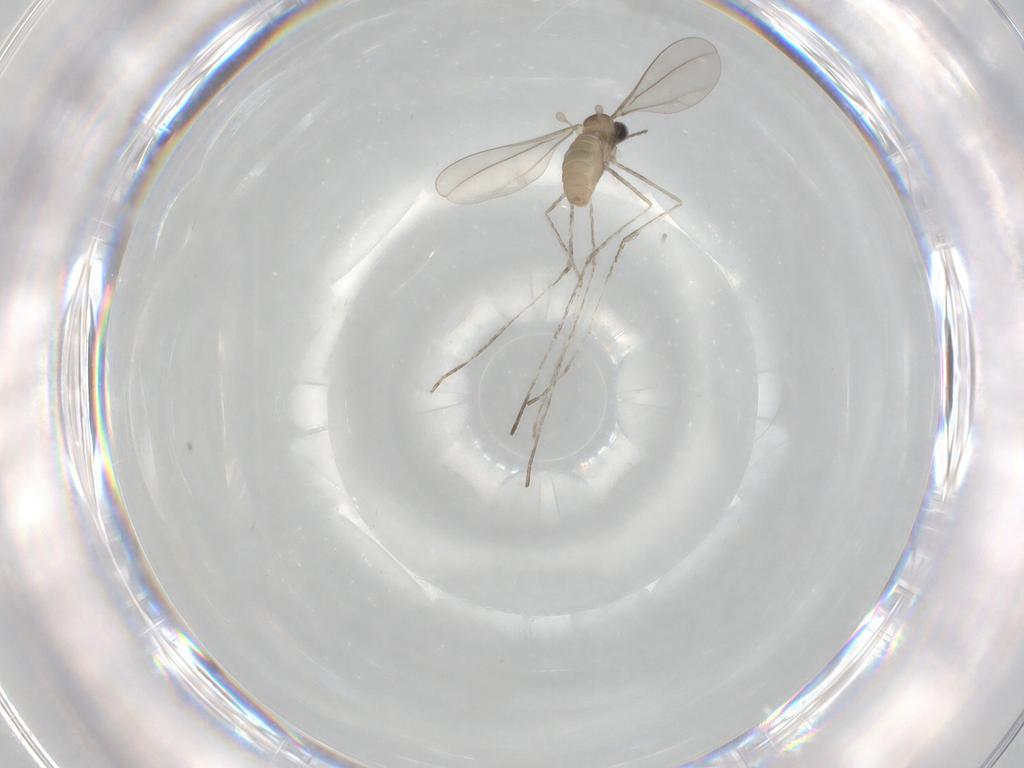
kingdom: Animalia
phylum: Arthropoda
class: Insecta
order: Diptera
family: Cecidomyiidae
